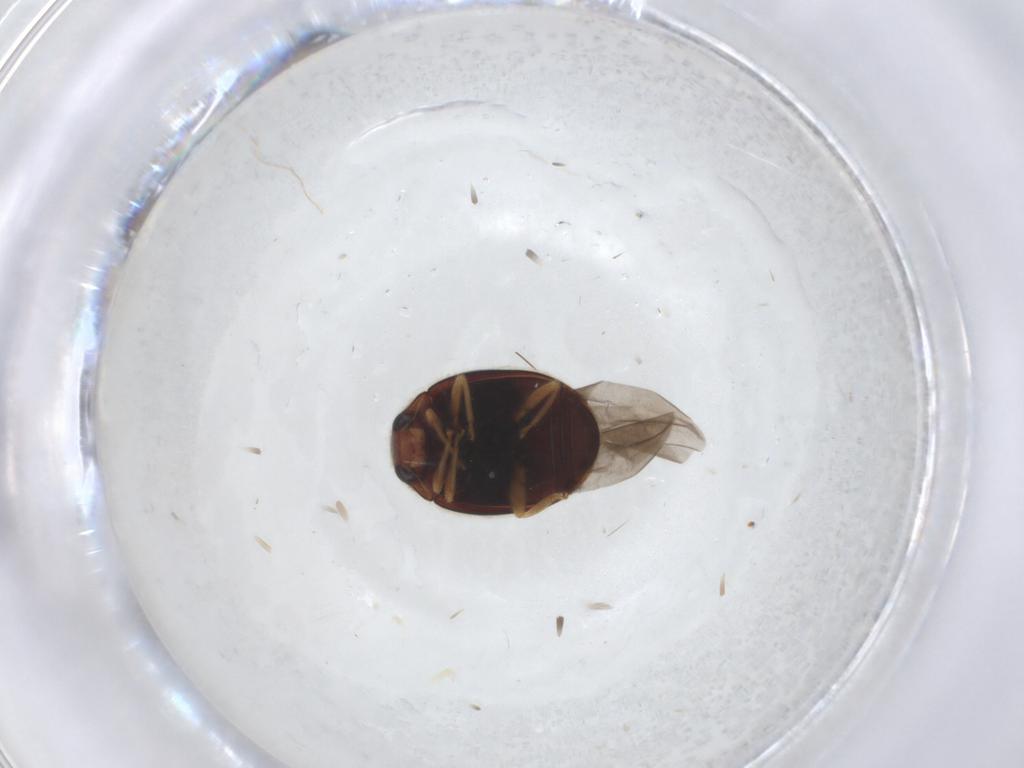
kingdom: Animalia
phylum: Arthropoda
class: Insecta
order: Coleoptera
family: Coccinellidae
